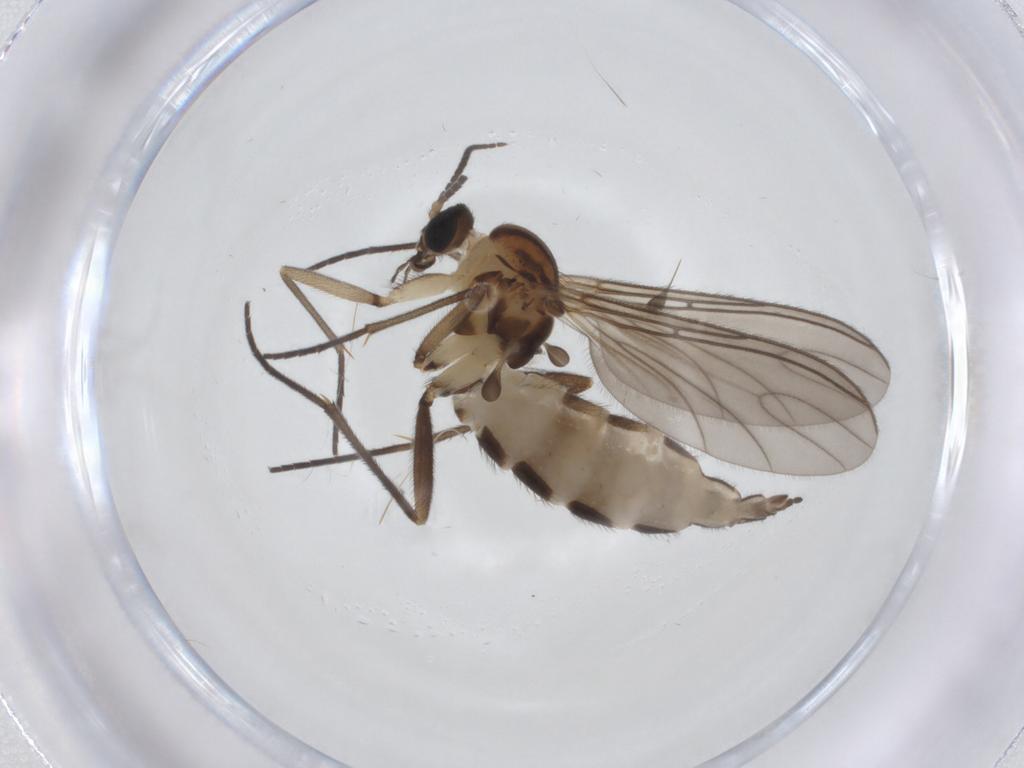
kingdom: Animalia
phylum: Arthropoda
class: Insecta
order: Diptera
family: Sciaridae
